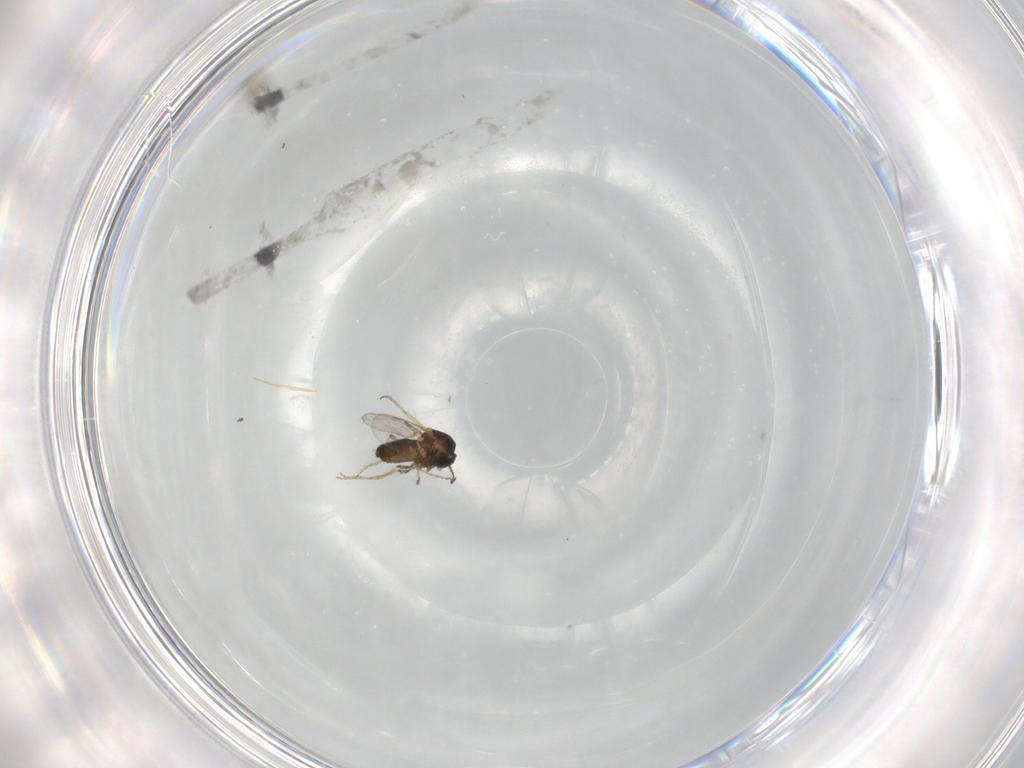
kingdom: Animalia
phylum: Arthropoda
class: Insecta
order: Diptera
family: Ceratopogonidae
